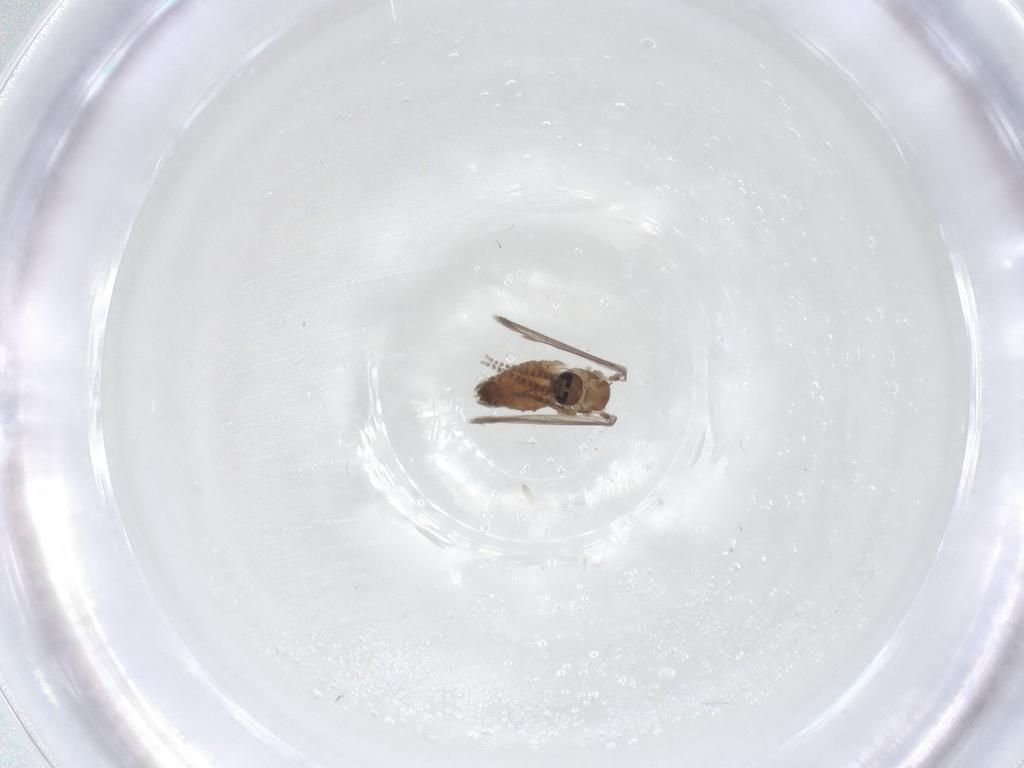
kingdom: Animalia
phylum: Arthropoda
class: Insecta
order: Diptera
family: Psychodidae
